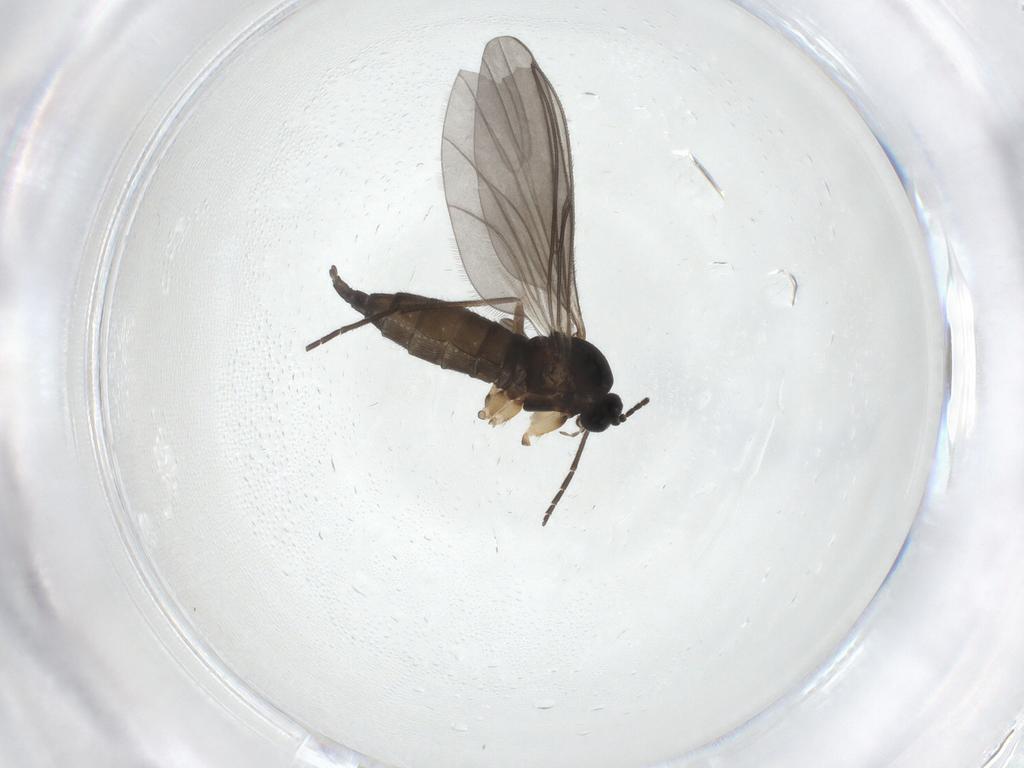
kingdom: Animalia
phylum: Arthropoda
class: Insecta
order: Diptera
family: Sciaridae
